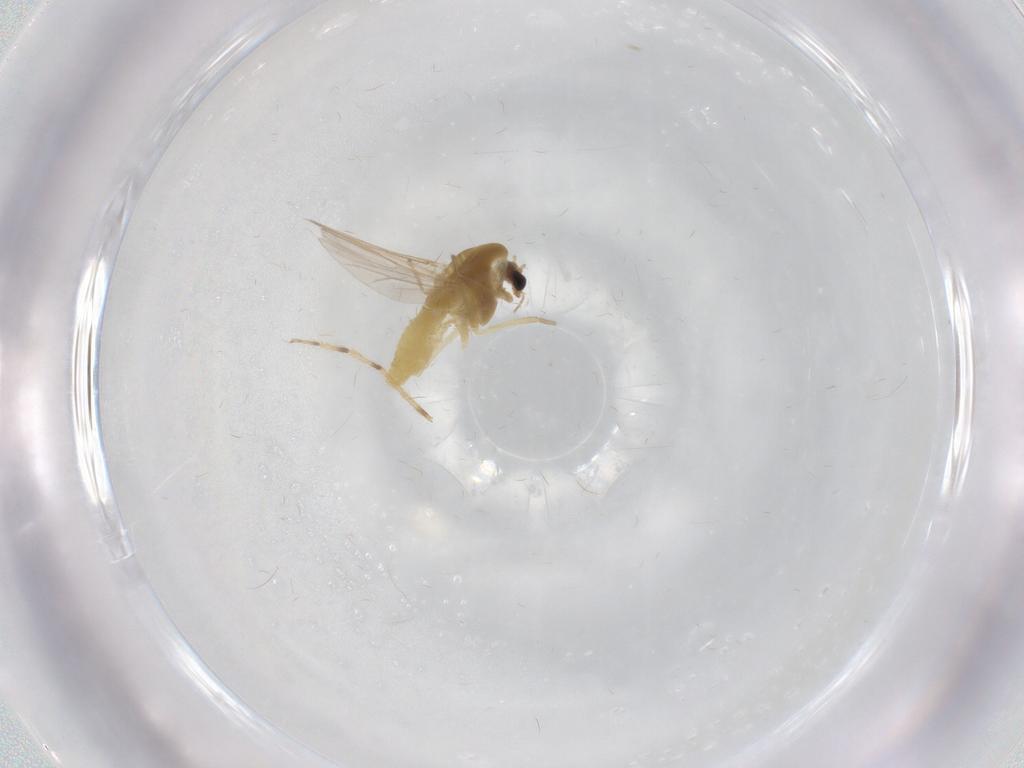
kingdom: Animalia
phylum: Arthropoda
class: Insecta
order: Diptera
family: Chironomidae
